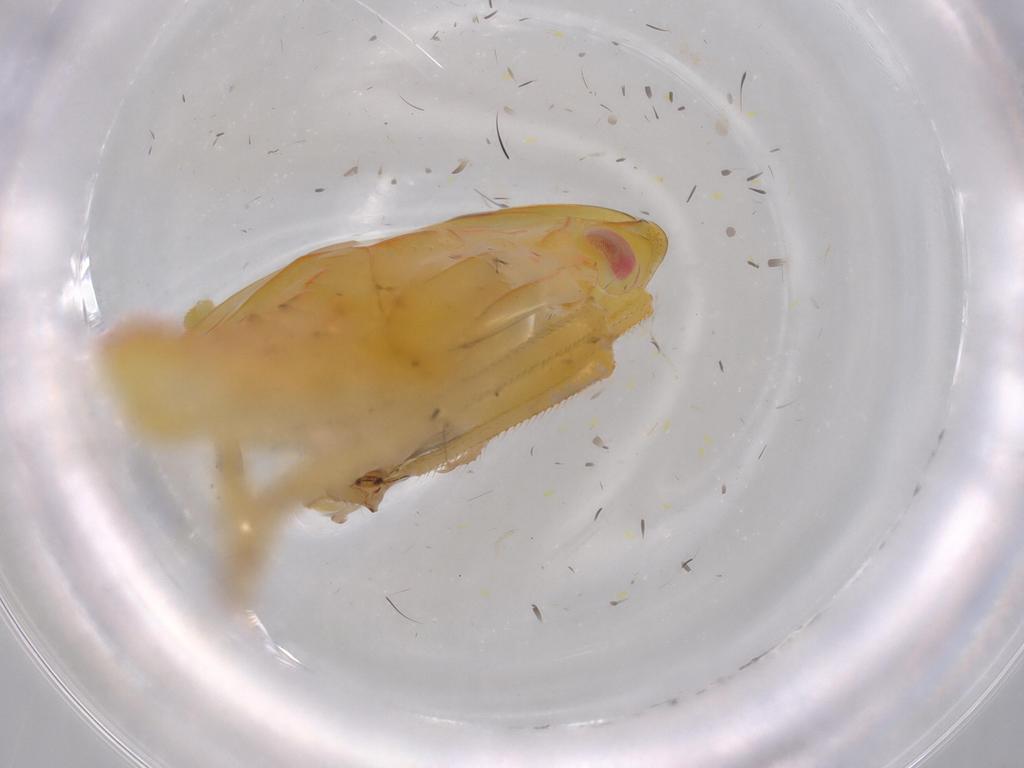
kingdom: Animalia
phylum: Arthropoda
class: Insecta
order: Hemiptera
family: Tropiduchidae
